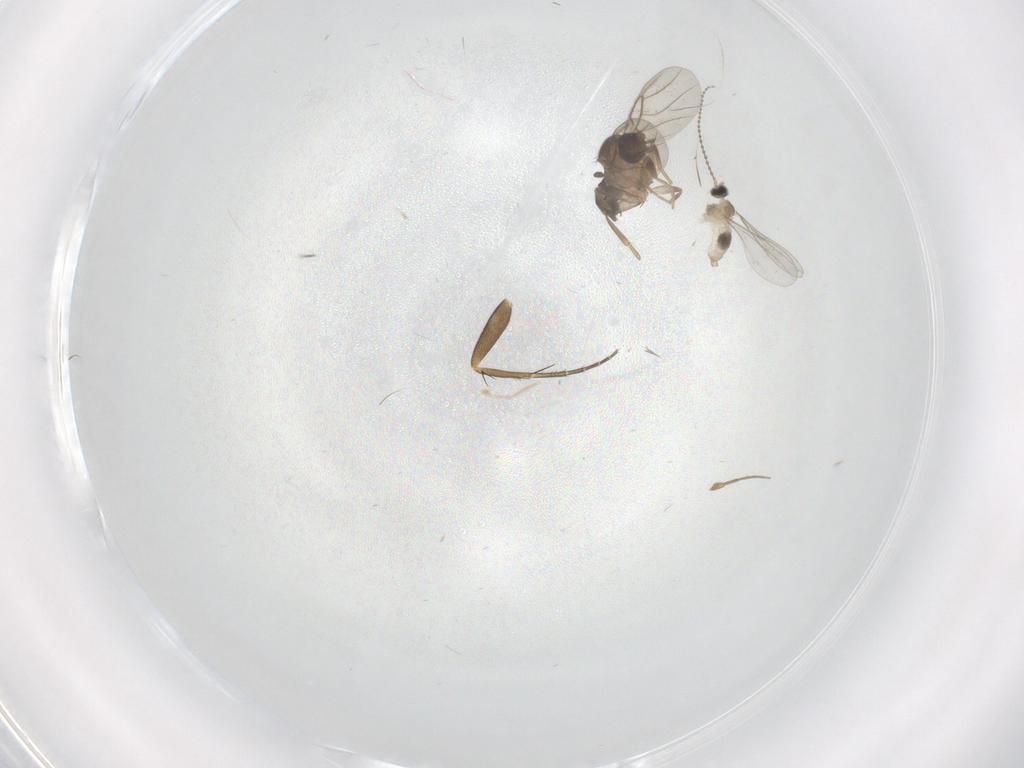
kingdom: Animalia
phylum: Arthropoda
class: Insecta
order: Diptera
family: Phoridae
